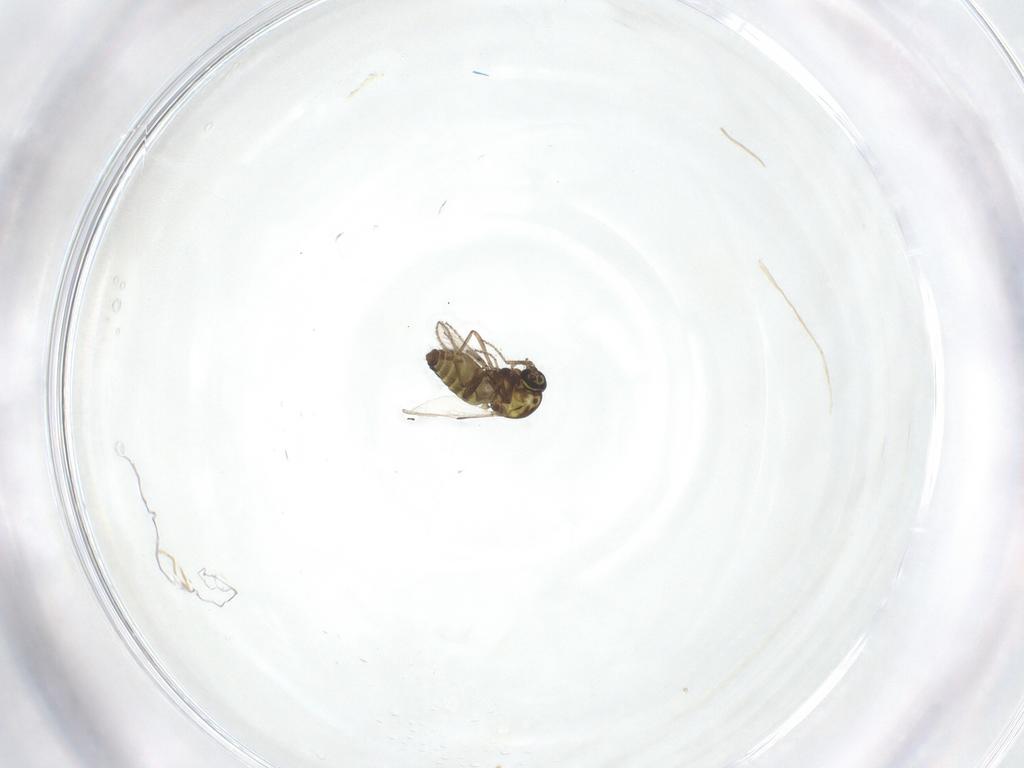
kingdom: Animalia
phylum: Arthropoda
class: Insecta
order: Diptera
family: Ceratopogonidae
